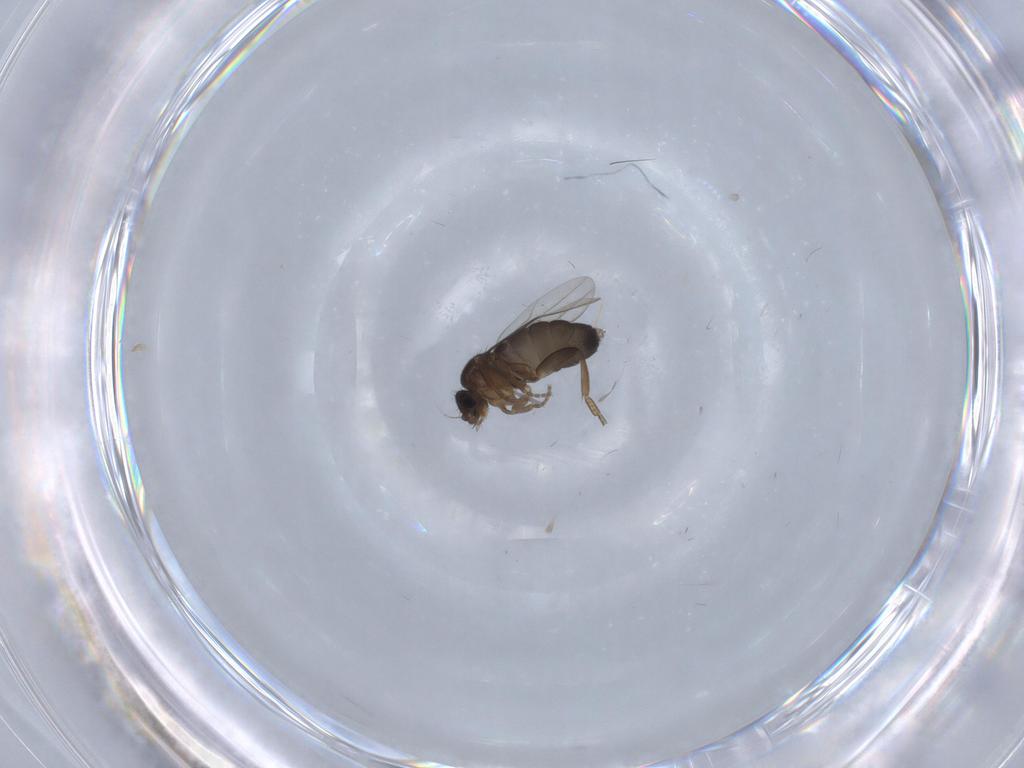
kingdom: Animalia
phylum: Arthropoda
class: Insecta
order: Diptera
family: Phoridae
